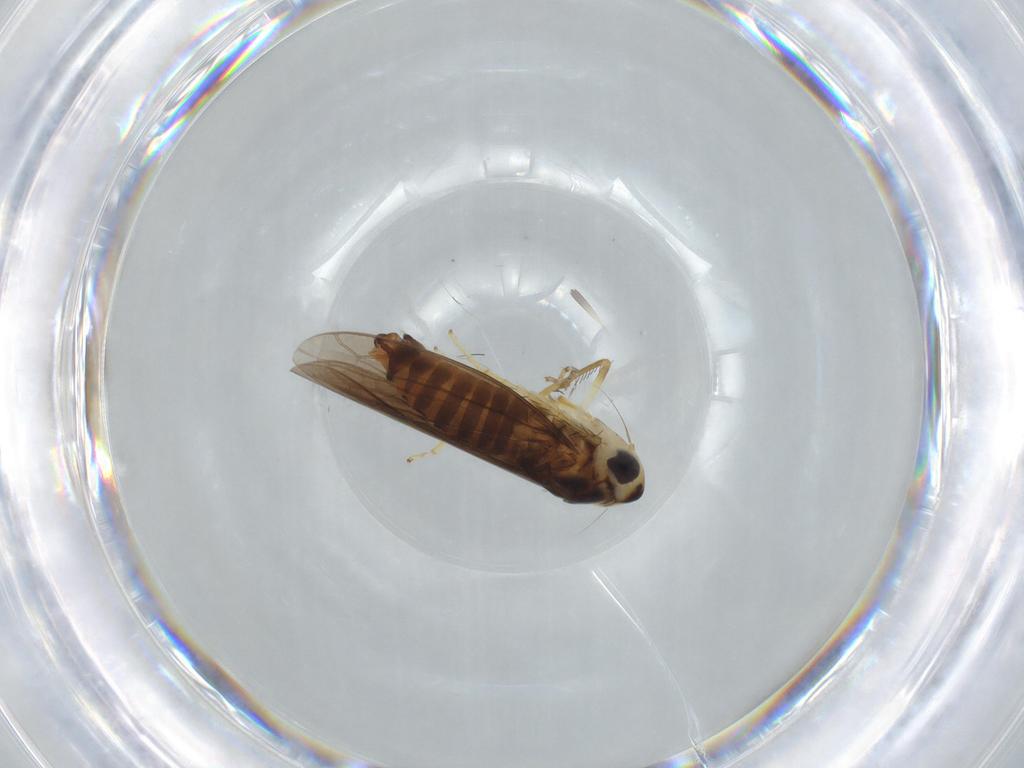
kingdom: Animalia
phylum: Arthropoda
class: Insecta
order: Hemiptera
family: Cicadellidae
